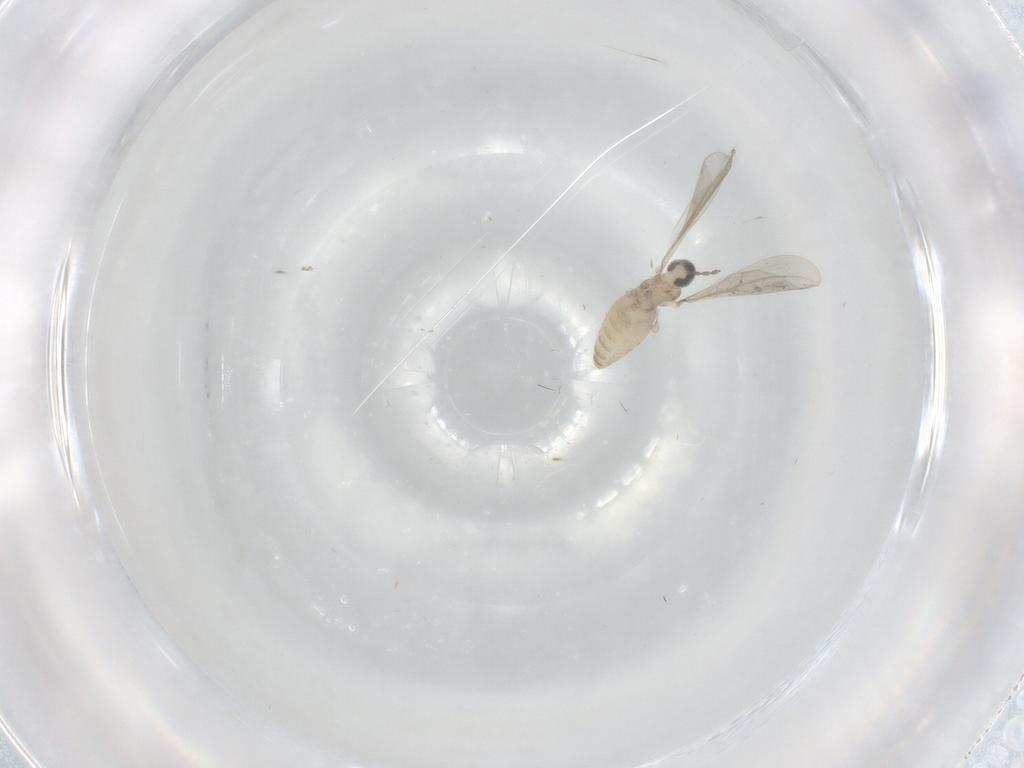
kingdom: Animalia
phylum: Arthropoda
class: Insecta
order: Diptera
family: Cecidomyiidae
